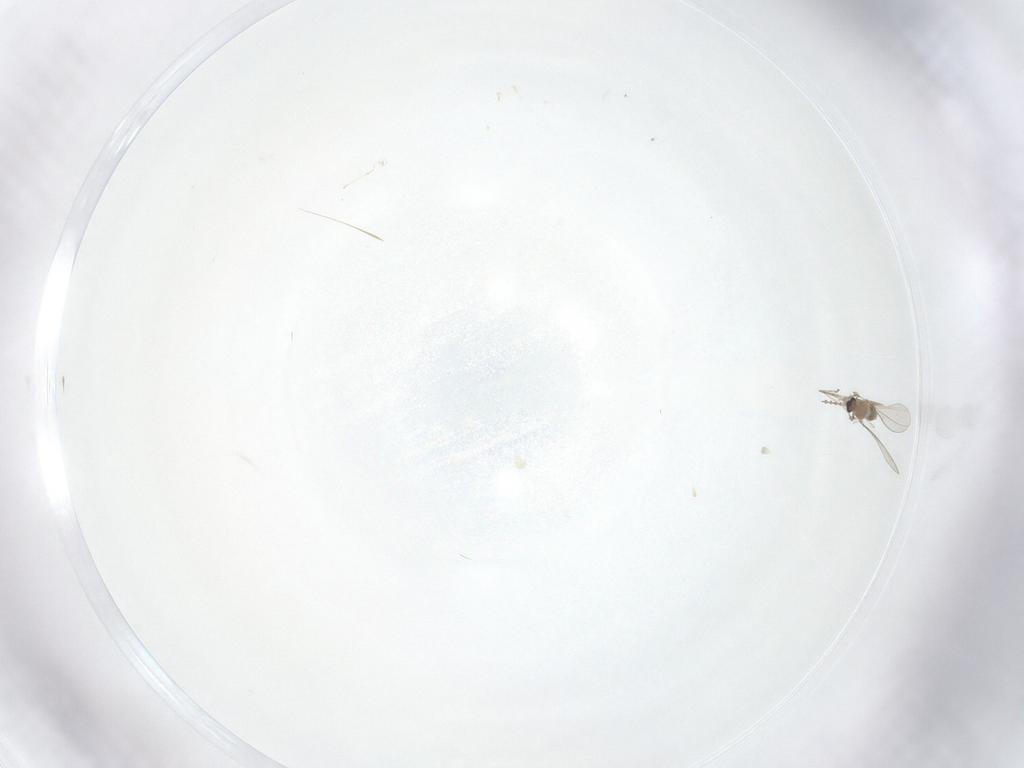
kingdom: Animalia
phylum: Arthropoda
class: Insecta
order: Diptera
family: Cecidomyiidae
